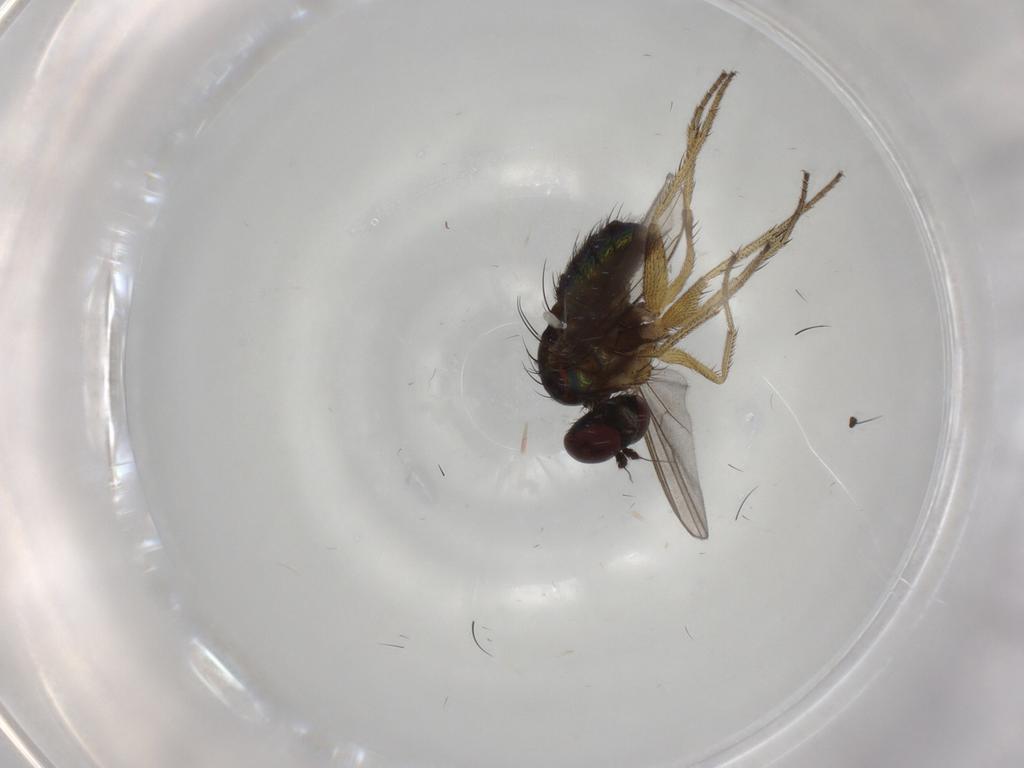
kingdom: Animalia
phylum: Arthropoda
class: Insecta
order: Diptera
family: Dolichopodidae
